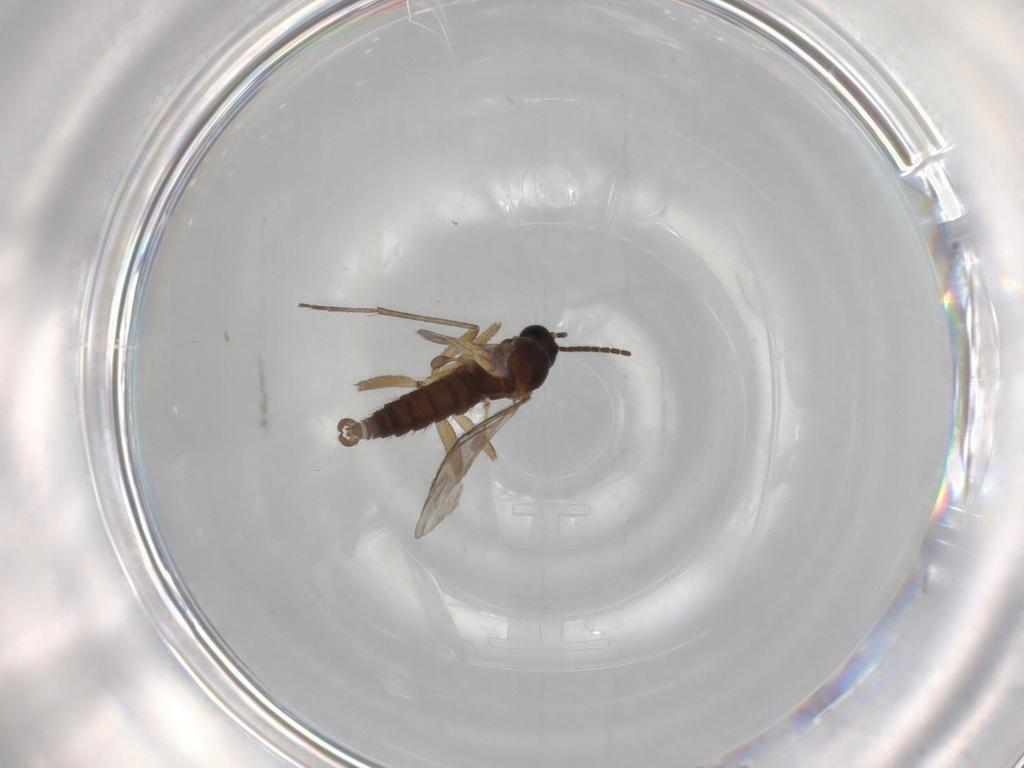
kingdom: Animalia
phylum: Arthropoda
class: Insecta
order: Diptera
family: Sciaridae
